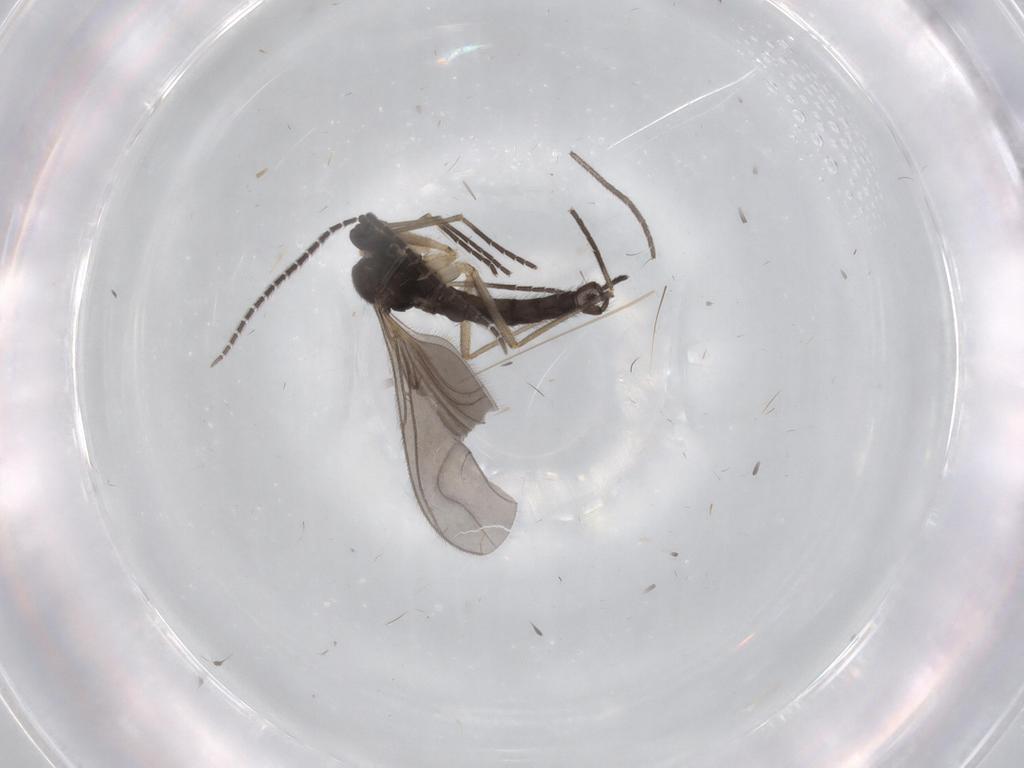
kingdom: Animalia
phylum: Arthropoda
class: Insecta
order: Diptera
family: Sciaridae
